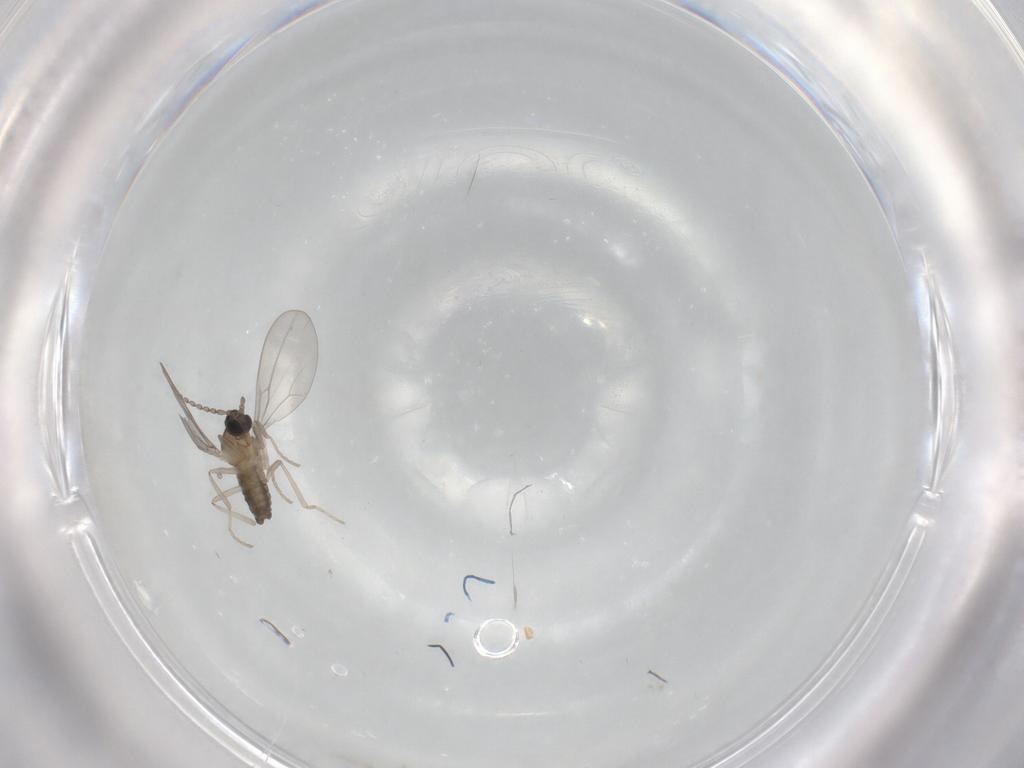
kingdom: Animalia
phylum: Arthropoda
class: Insecta
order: Diptera
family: Cecidomyiidae
